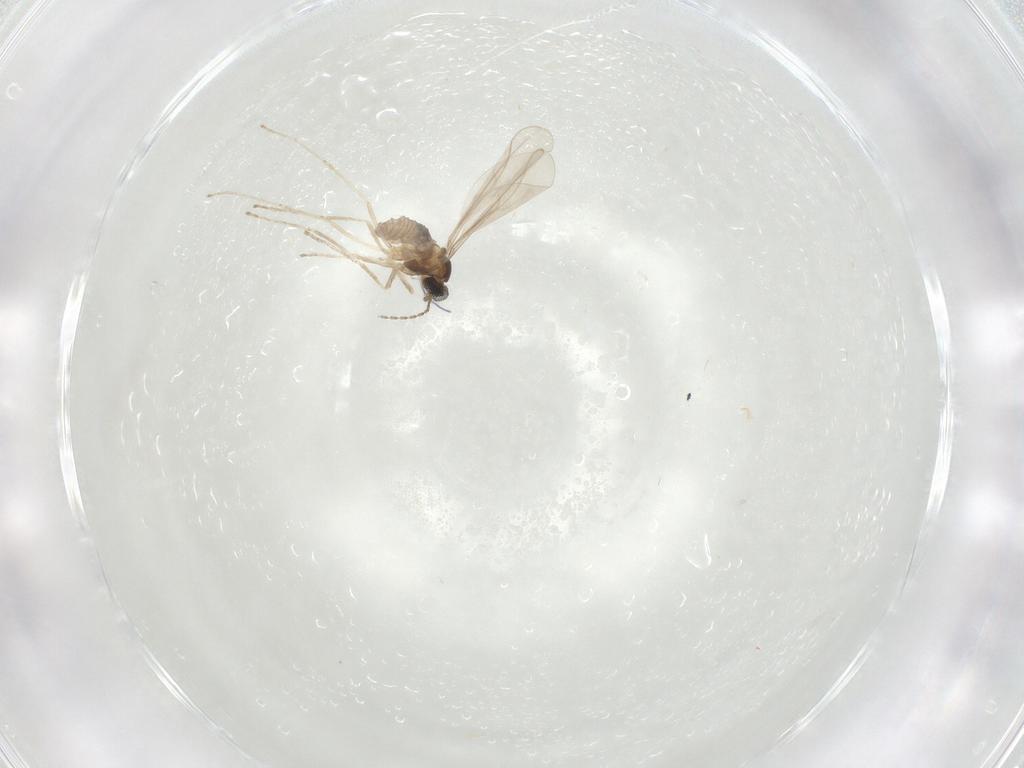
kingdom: Animalia
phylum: Arthropoda
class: Insecta
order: Diptera
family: Cecidomyiidae
